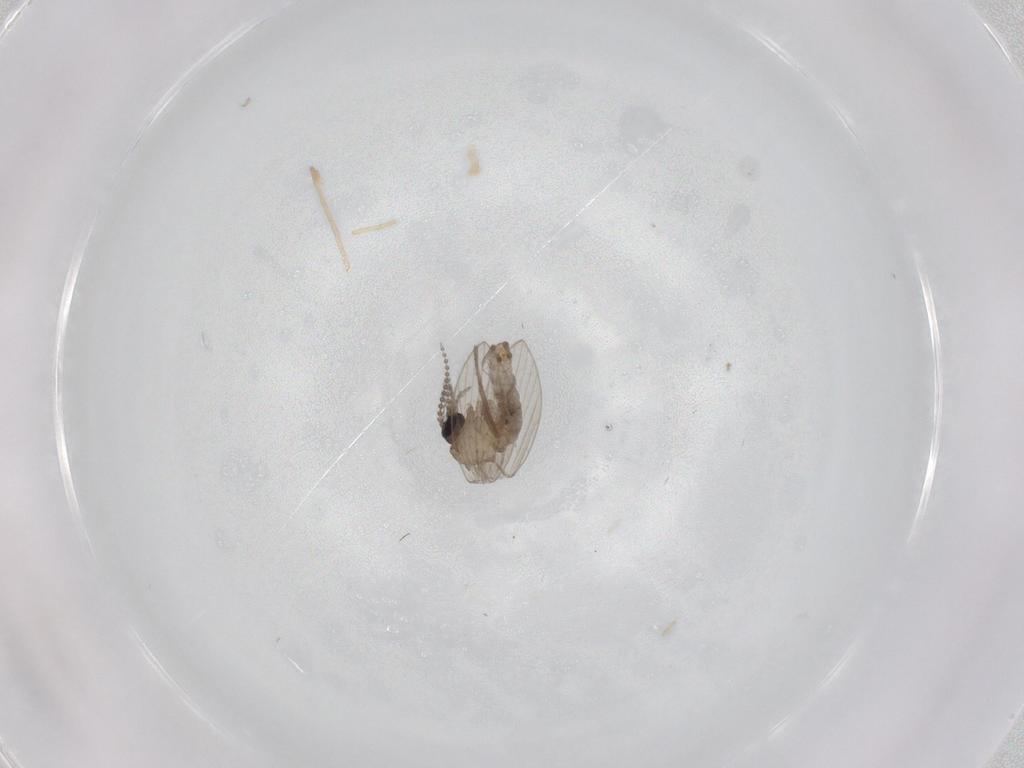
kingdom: Animalia
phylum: Arthropoda
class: Insecta
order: Diptera
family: Psychodidae
